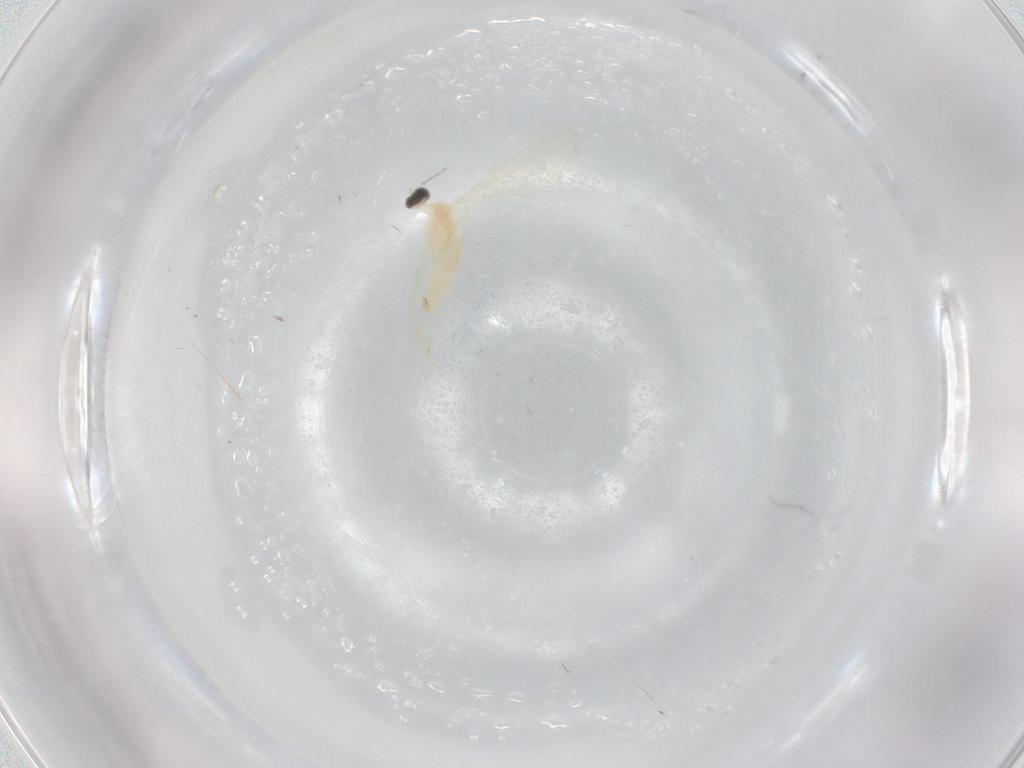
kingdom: Animalia
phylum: Arthropoda
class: Insecta
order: Diptera
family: Cecidomyiidae
